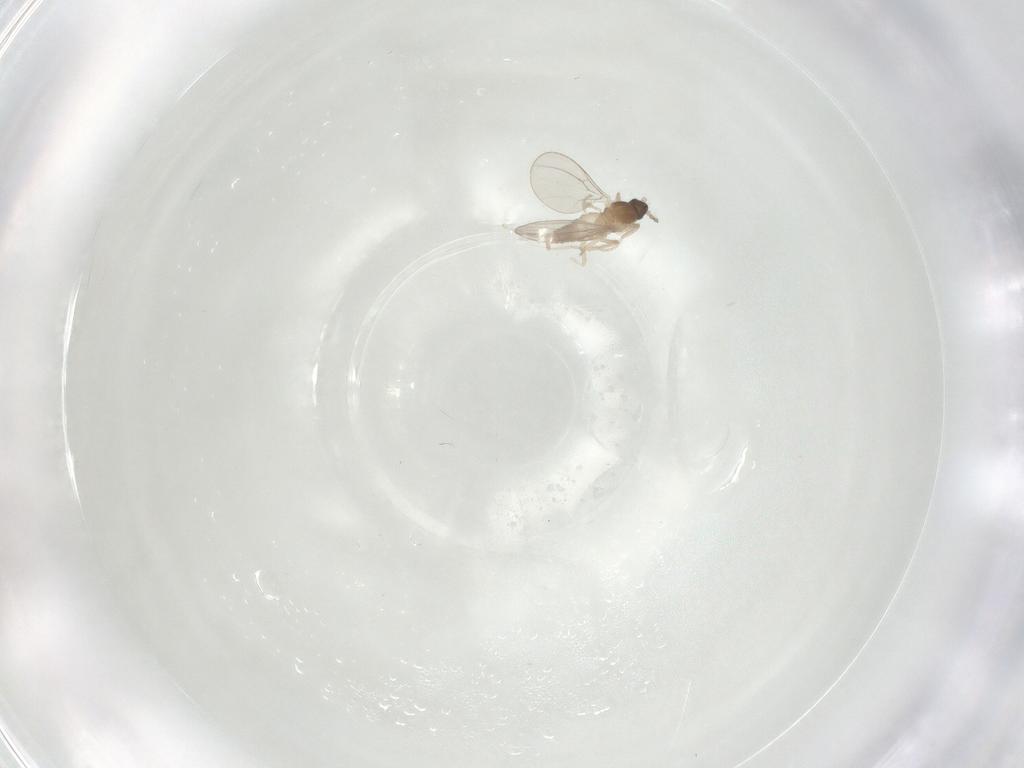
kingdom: Animalia
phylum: Arthropoda
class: Insecta
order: Diptera
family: Cecidomyiidae
